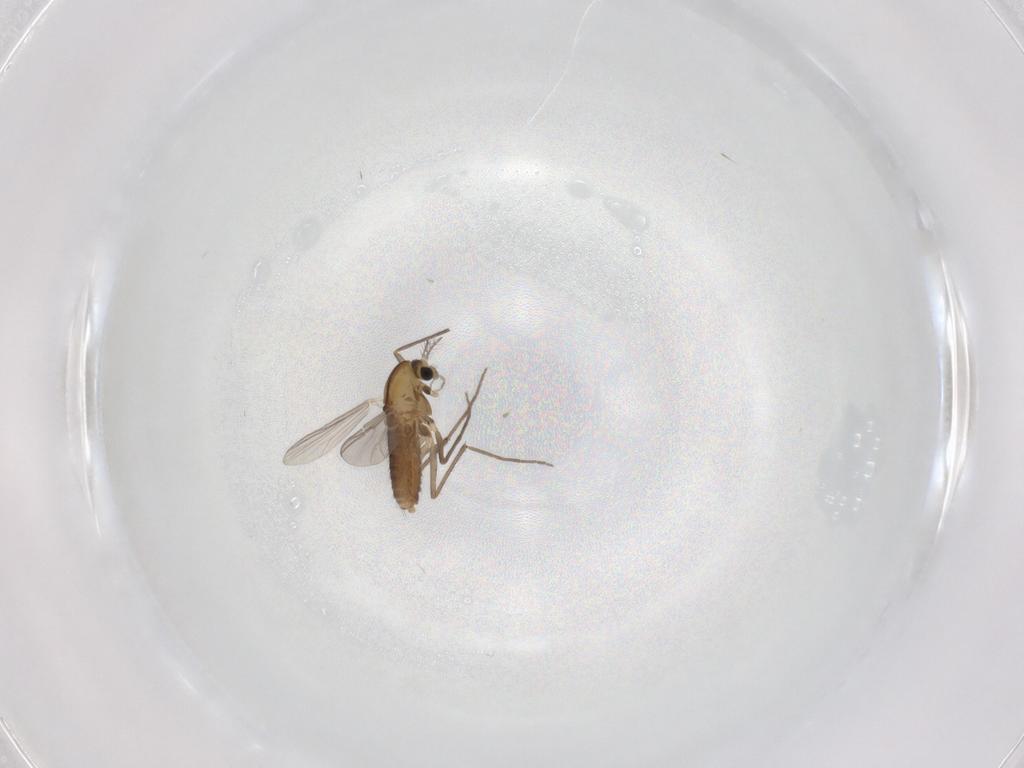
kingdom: Animalia
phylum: Arthropoda
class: Insecta
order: Diptera
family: Chironomidae
